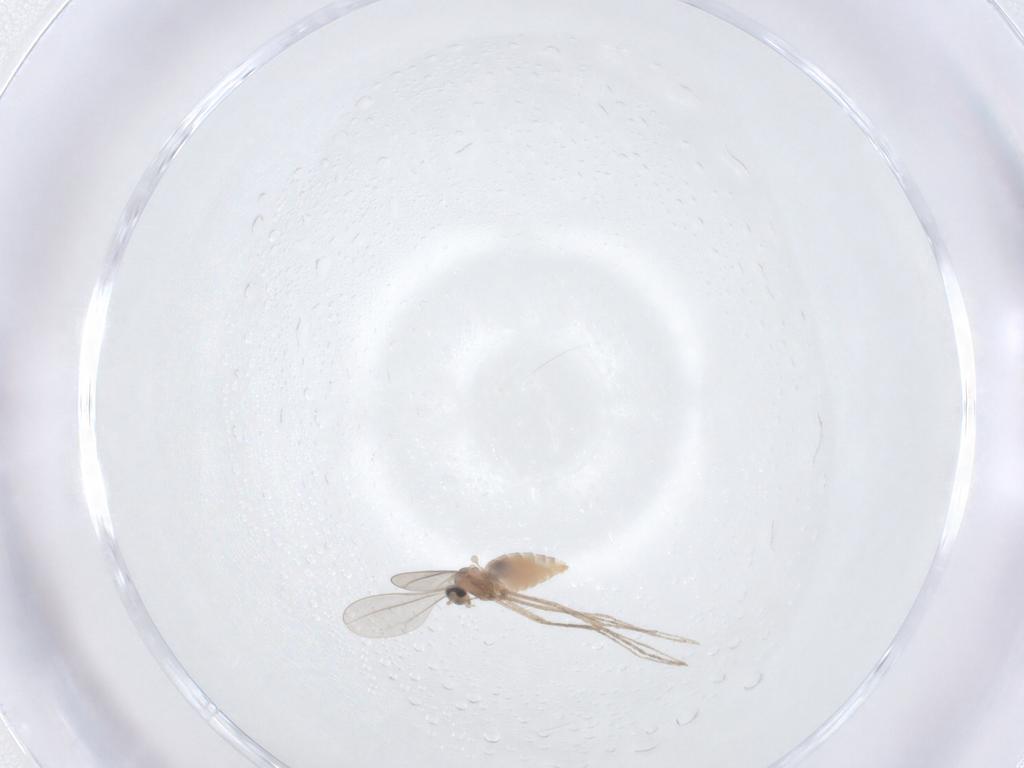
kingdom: Animalia
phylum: Arthropoda
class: Insecta
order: Diptera
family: Cecidomyiidae
